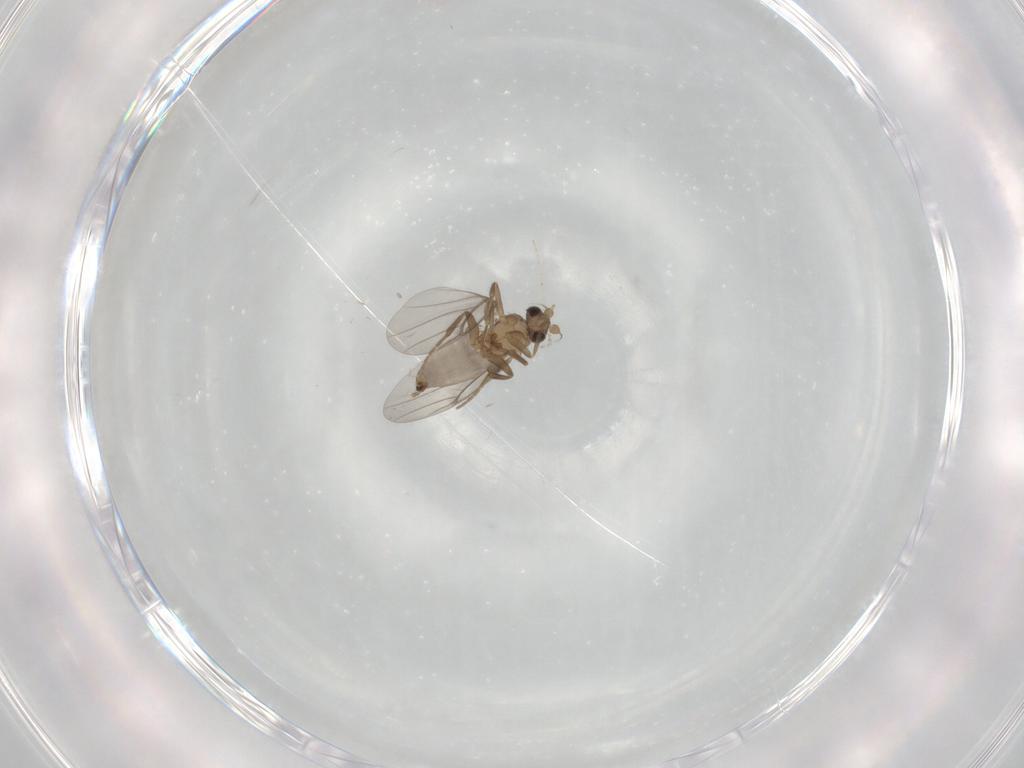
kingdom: Animalia
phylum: Arthropoda
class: Insecta
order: Diptera
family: Cecidomyiidae
